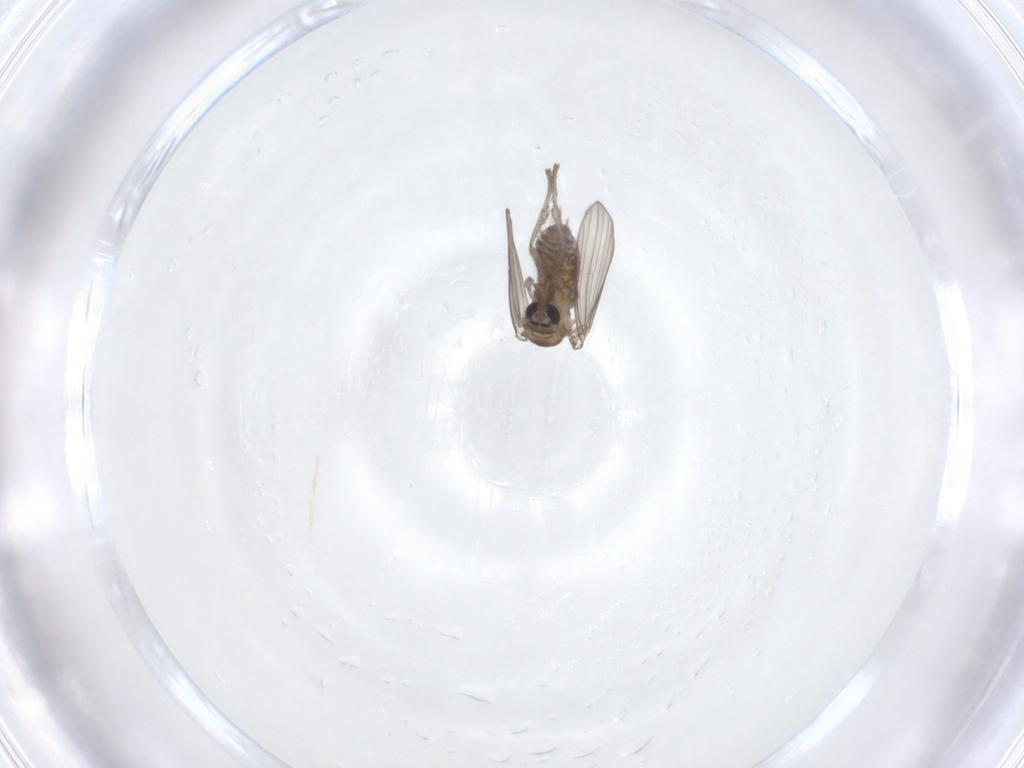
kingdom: Animalia
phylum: Arthropoda
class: Insecta
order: Diptera
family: Psychodidae
